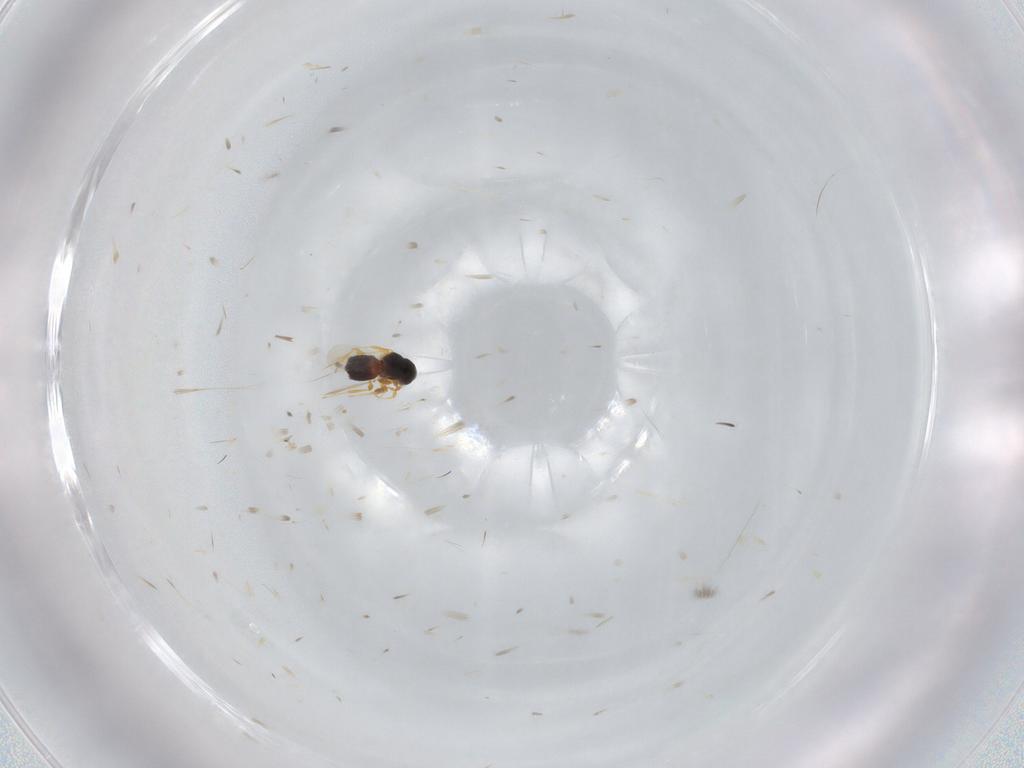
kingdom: Animalia
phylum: Arthropoda
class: Insecta
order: Hymenoptera
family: Platygastridae
